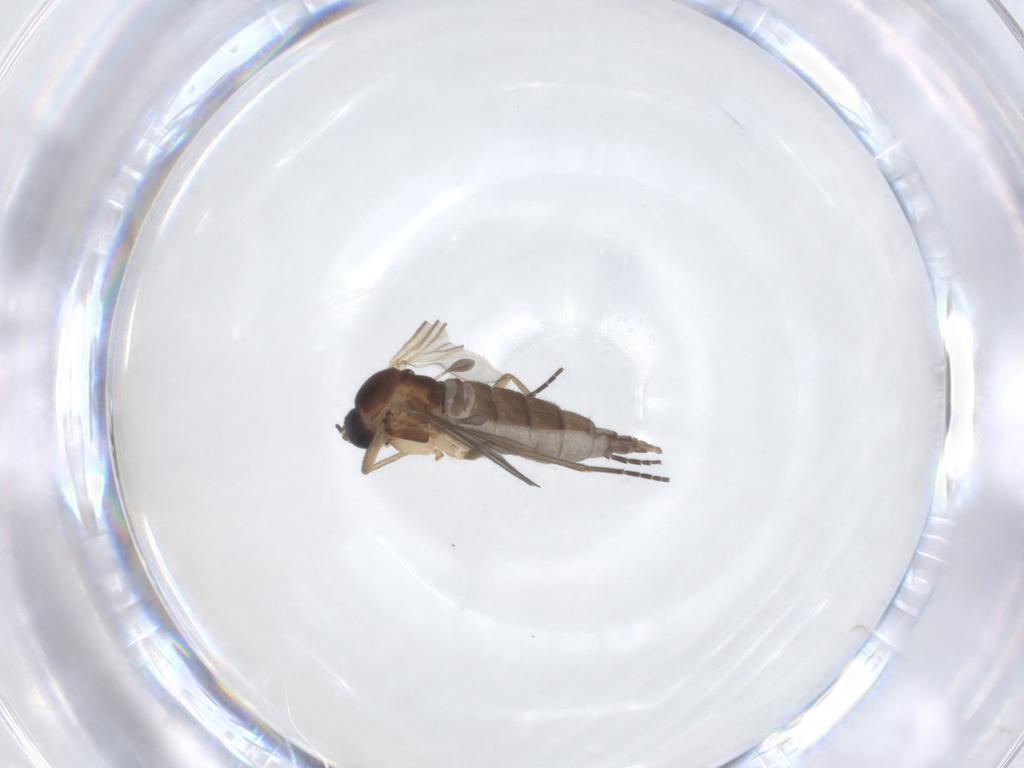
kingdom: Animalia
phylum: Arthropoda
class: Insecta
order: Diptera
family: Sciaridae
